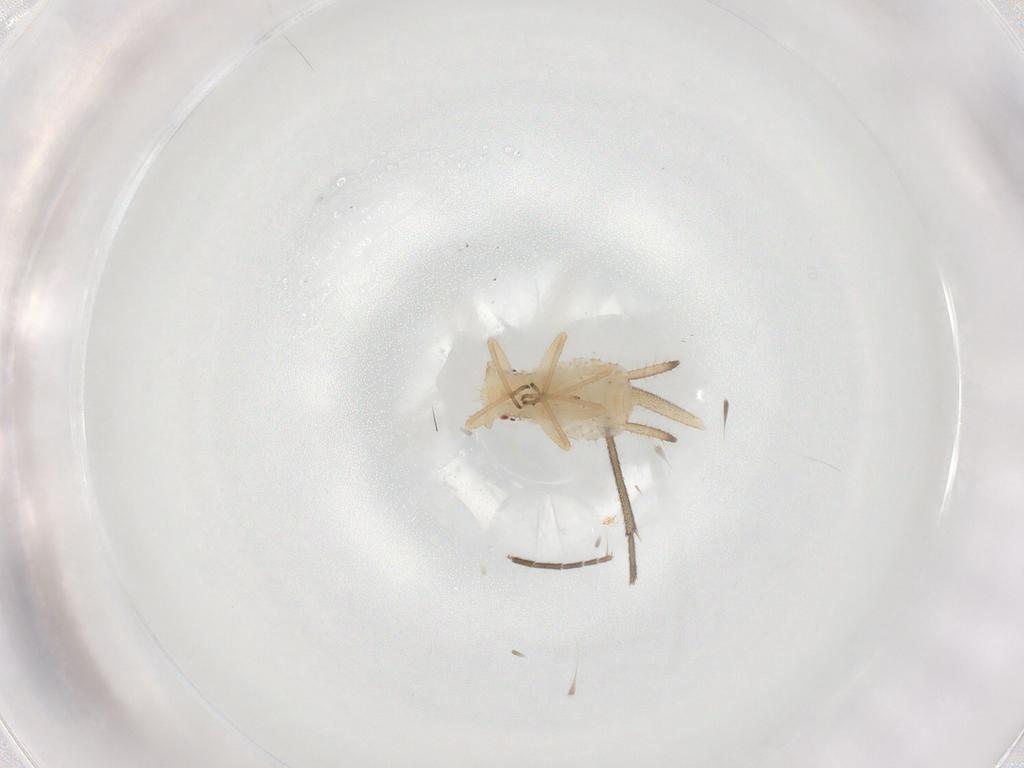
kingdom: Animalia
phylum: Arthropoda
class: Insecta
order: Hemiptera
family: Aphididae
